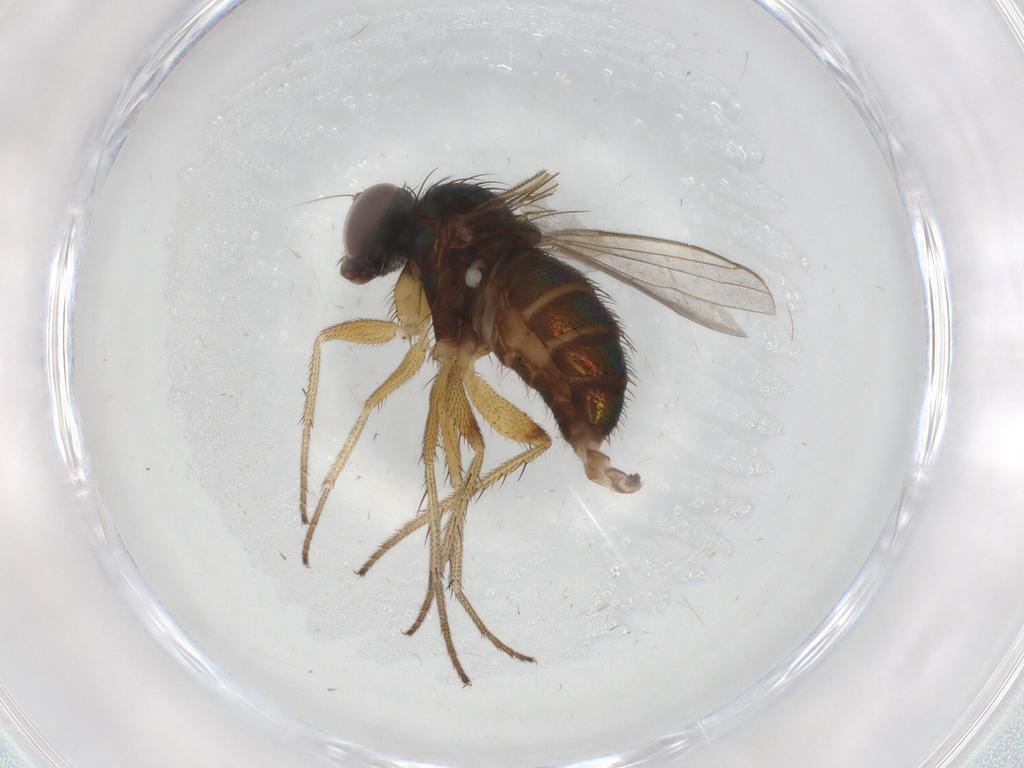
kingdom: Animalia
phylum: Arthropoda
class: Insecta
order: Diptera
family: Dolichopodidae
